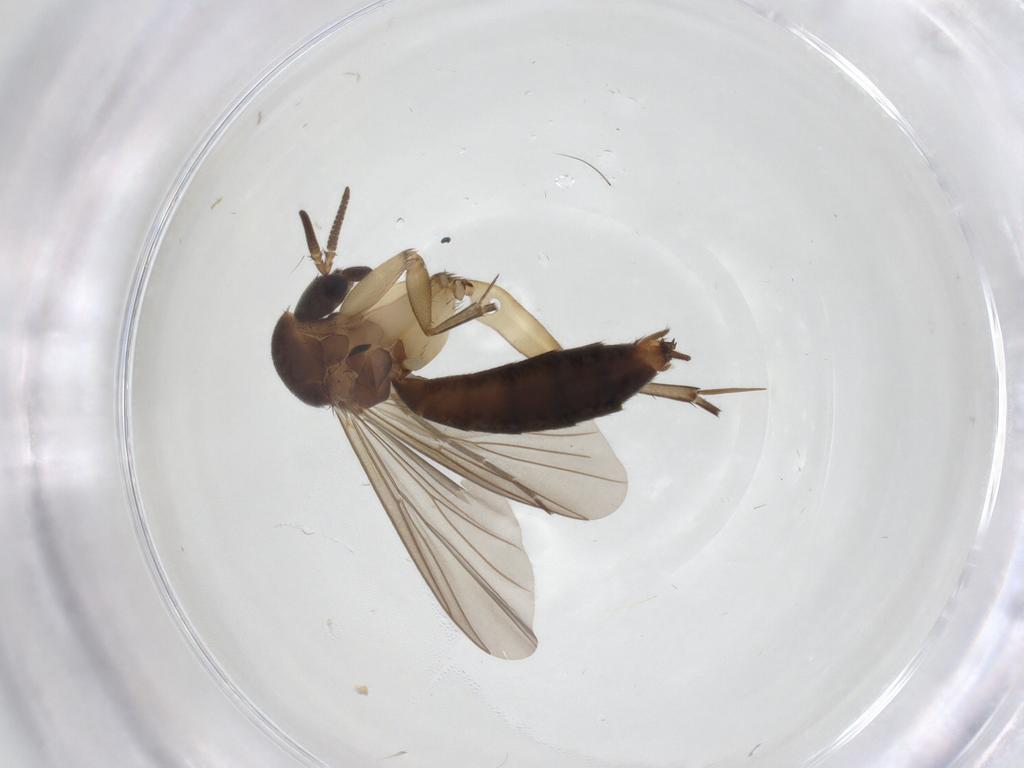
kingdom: Animalia
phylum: Arthropoda
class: Insecta
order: Diptera
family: Mycetophilidae
